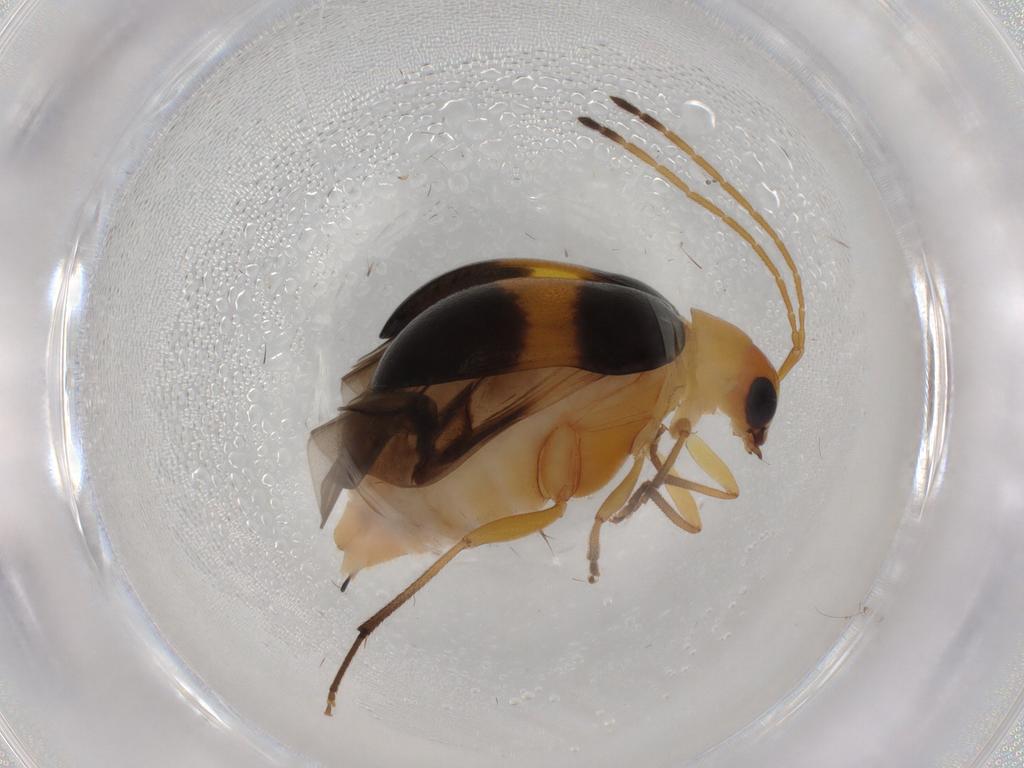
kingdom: Animalia
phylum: Arthropoda
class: Insecta
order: Coleoptera
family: Chrysomelidae
